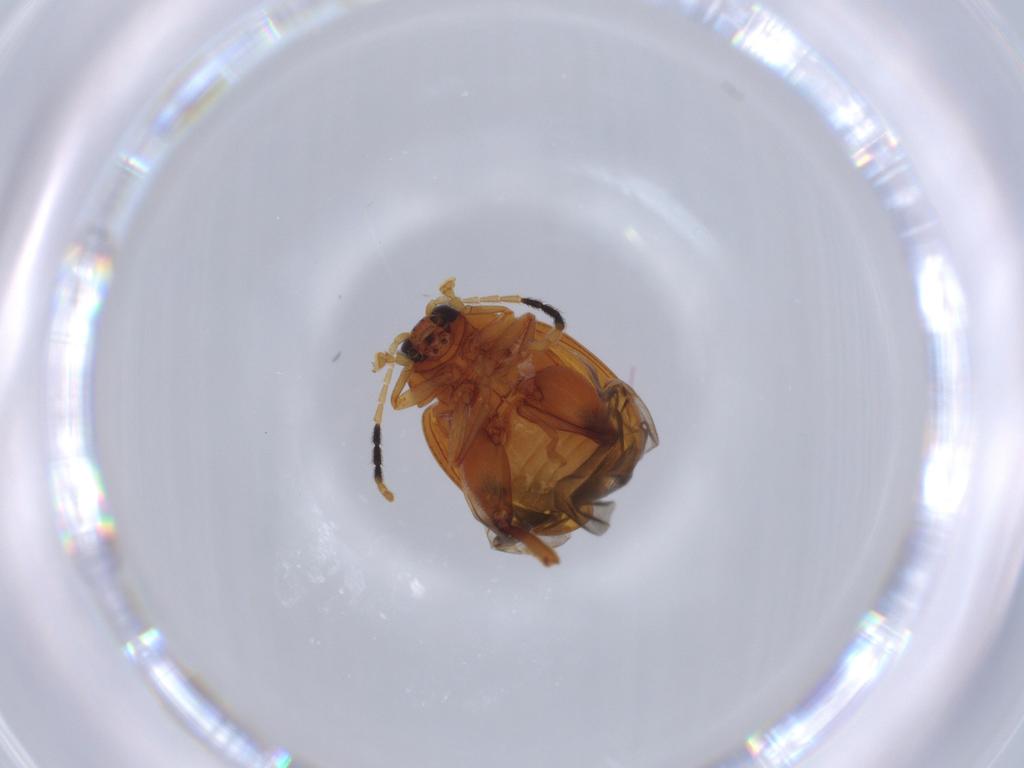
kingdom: Animalia
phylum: Arthropoda
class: Insecta
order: Coleoptera
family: Chrysomelidae
